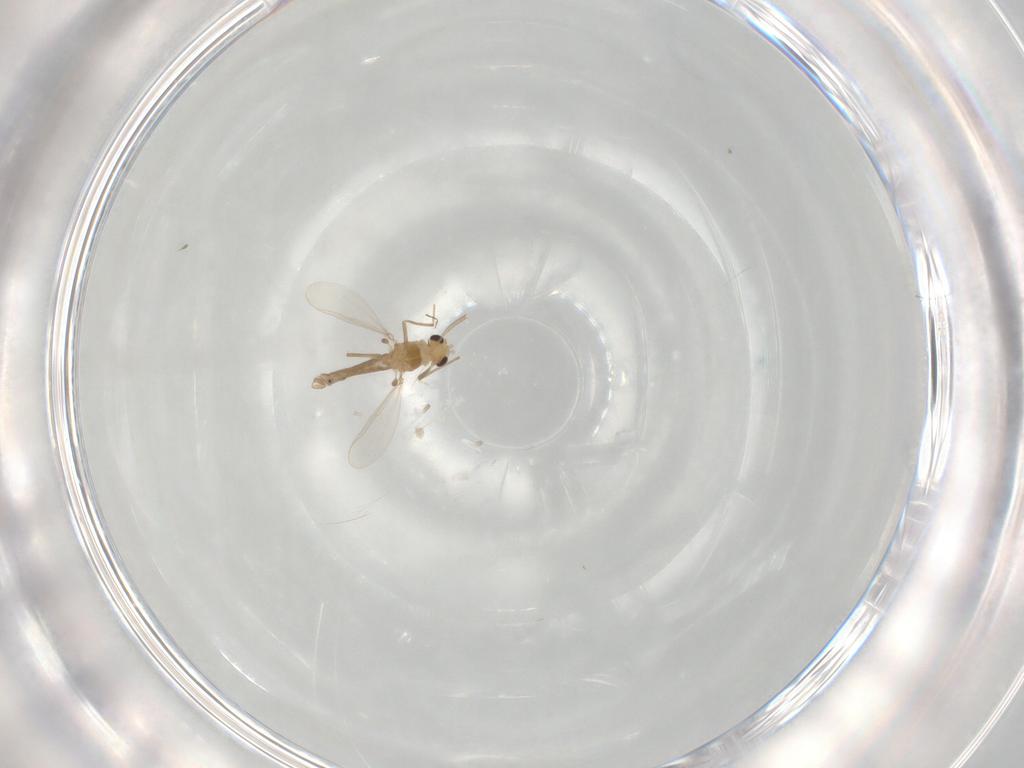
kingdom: Animalia
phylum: Arthropoda
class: Insecta
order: Diptera
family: Chironomidae
